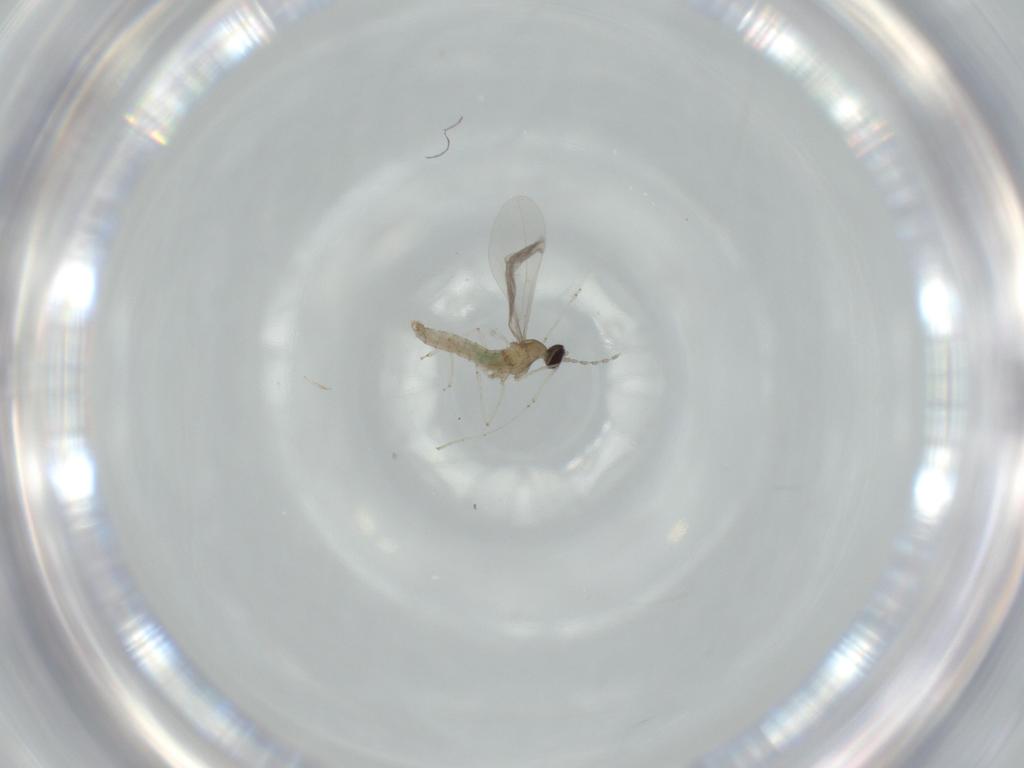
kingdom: Animalia
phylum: Arthropoda
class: Insecta
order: Diptera
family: Cecidomyiidae
